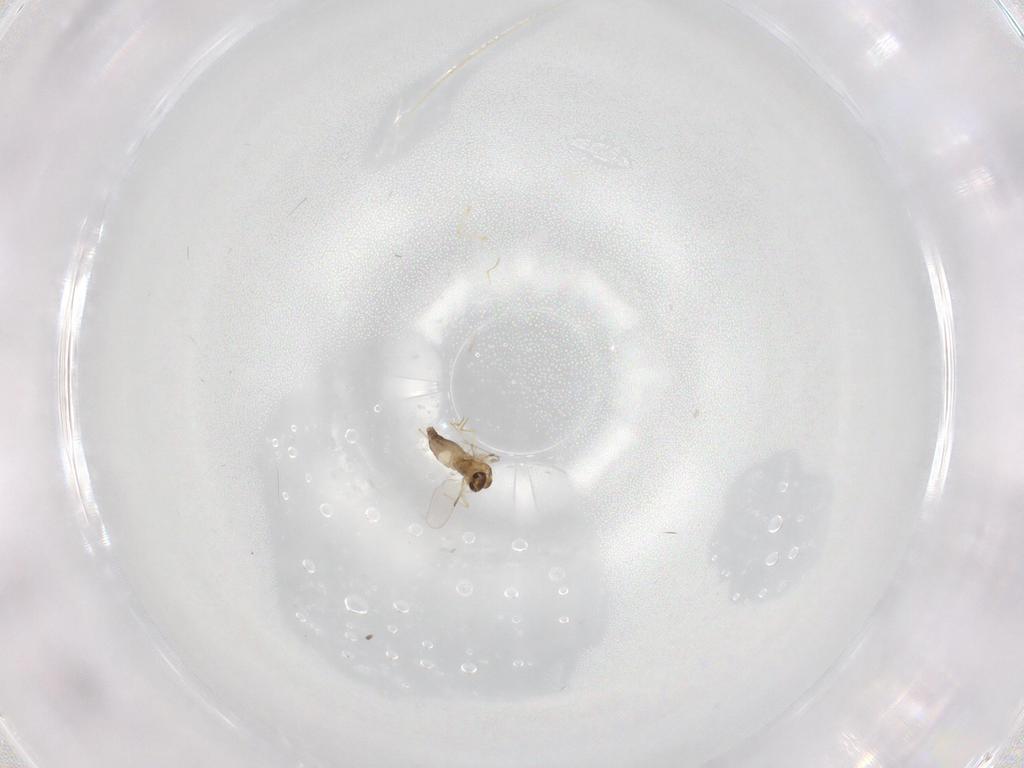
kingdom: Animalia
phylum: Arthropoda
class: Insecta
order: Diptera
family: Chironomidae
